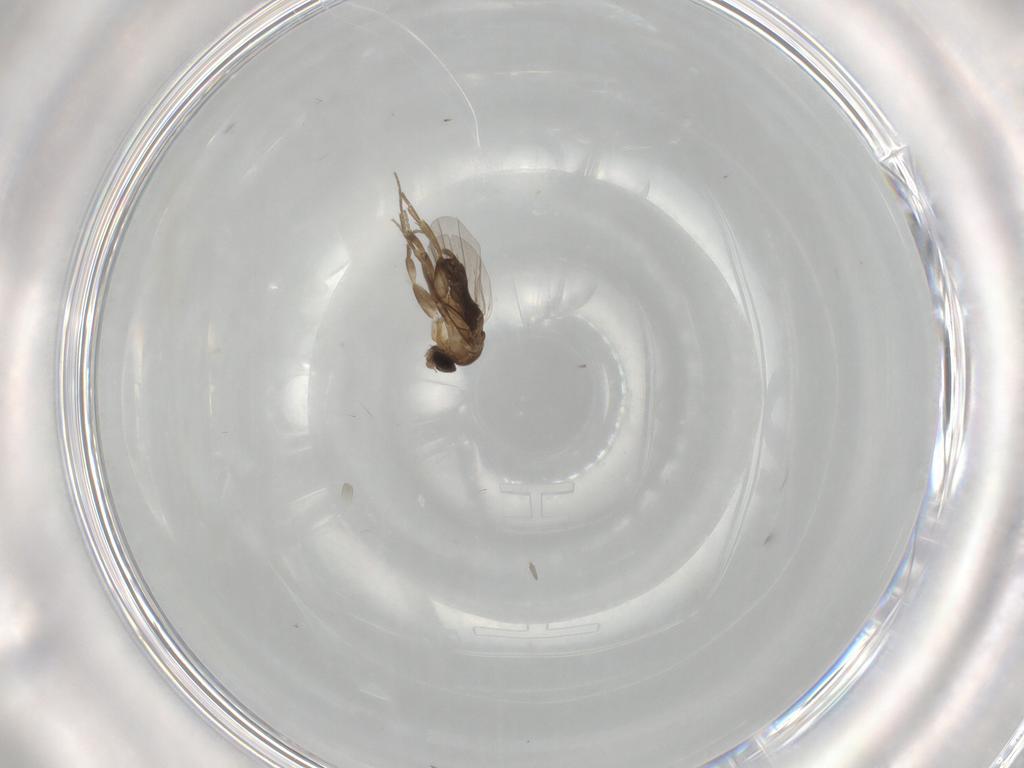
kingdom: Animalia
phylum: Arthropoda
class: Insecta
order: Diptera
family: Phoridae
